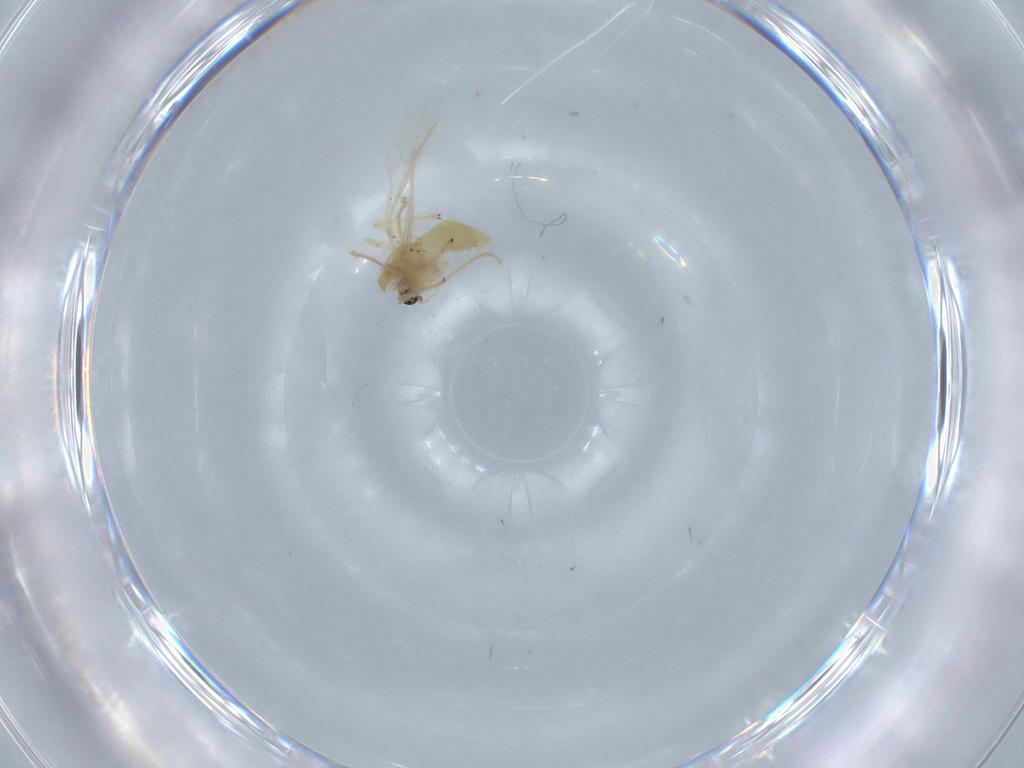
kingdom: Animalia
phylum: Arthropoda
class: Insecta
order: Diptera
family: Chironomidae
